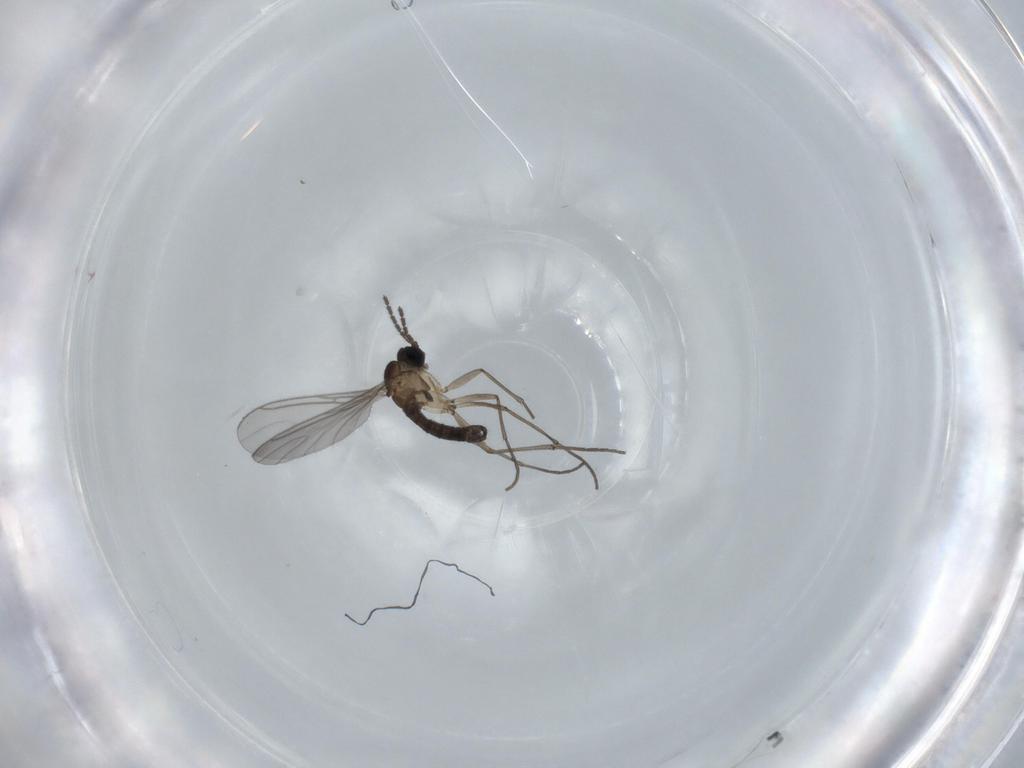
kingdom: Animalia
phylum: Arthropoda
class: Insecta
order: Diptera
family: Sciaridae
